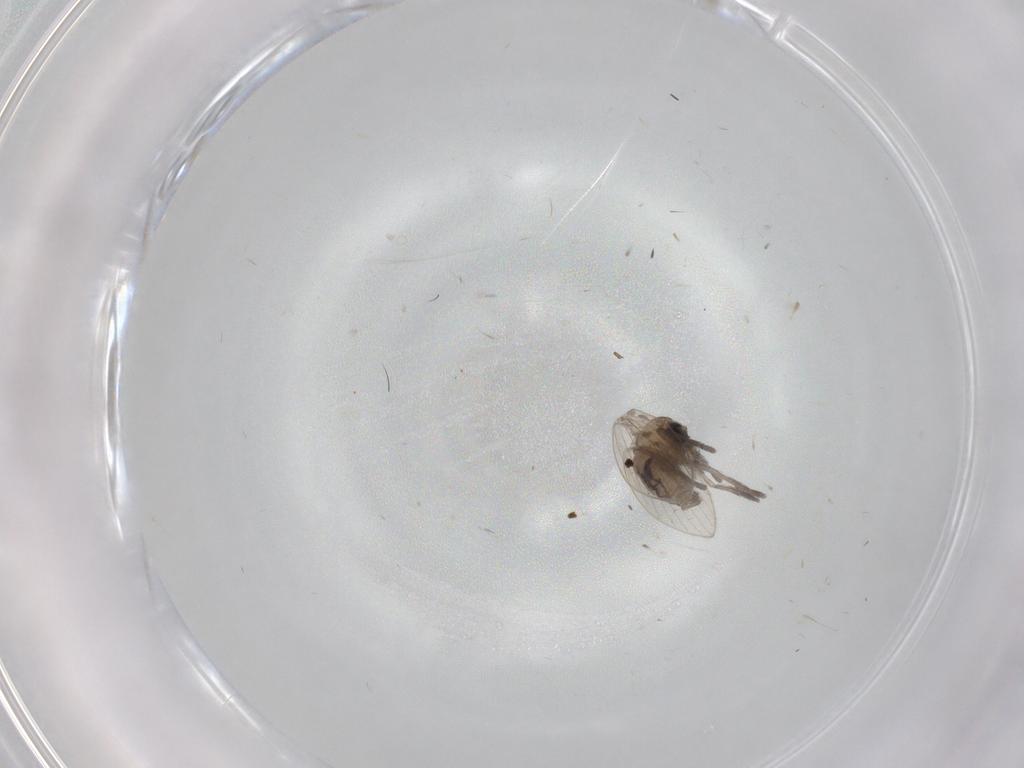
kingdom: Animalia
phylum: Arthropoda
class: Insecta
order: Diptera
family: Psychodidae
